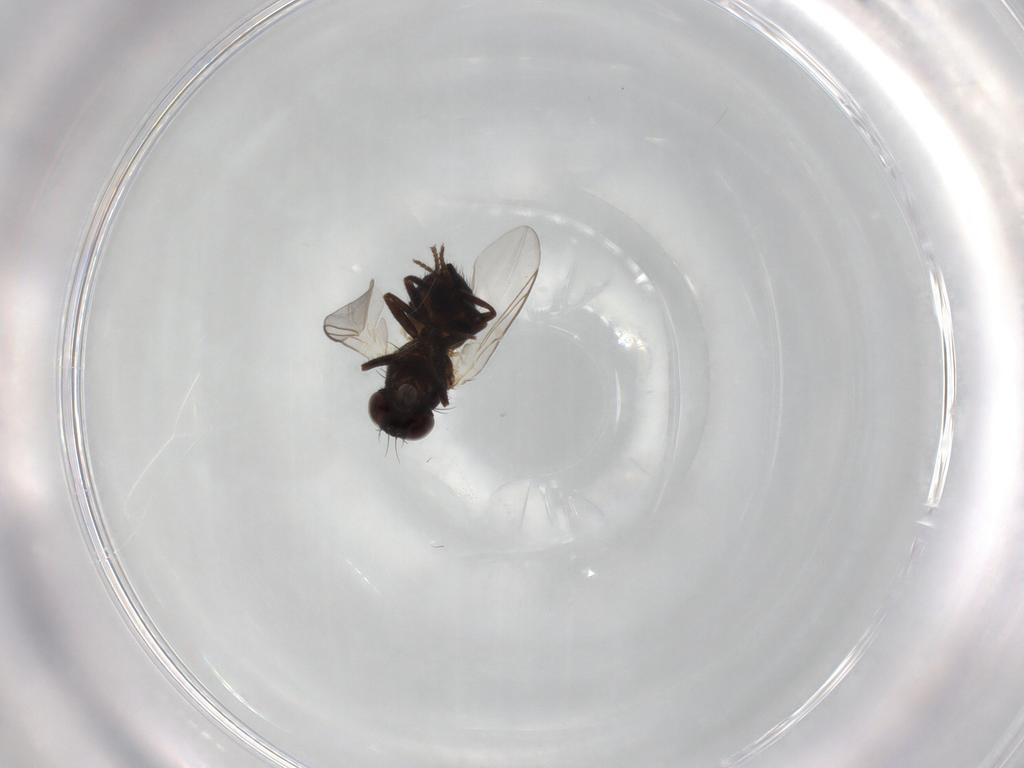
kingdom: Animalia
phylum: Arthropoda
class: Insecta
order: Diptera
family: Agromyzidae
